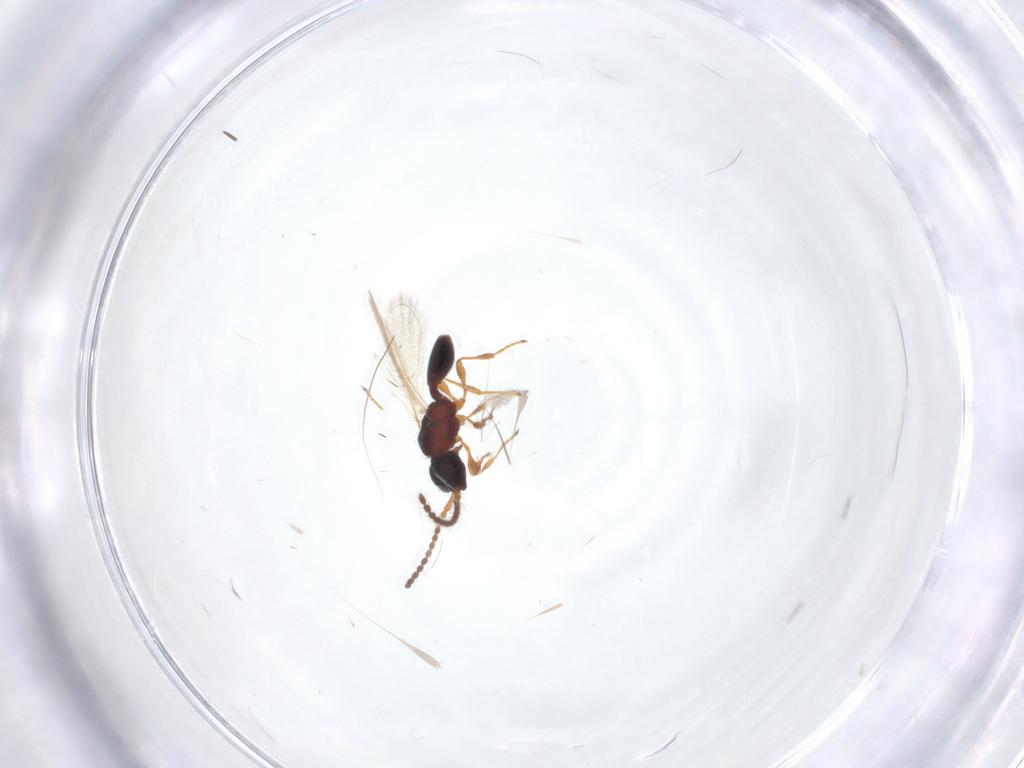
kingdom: Animalia
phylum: Arthropoda
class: Insecta
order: Hymenoptera
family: Diapriidae
